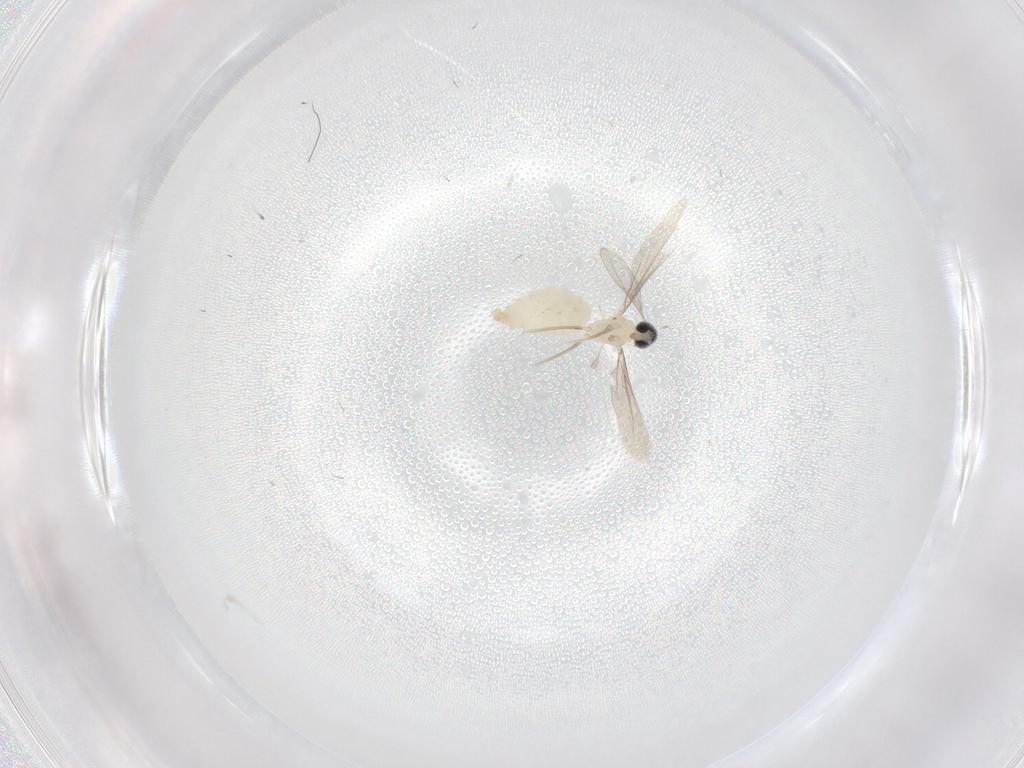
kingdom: Animalia
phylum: Arthropoda
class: Insecta
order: Diptera
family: Cecidomyiidae
